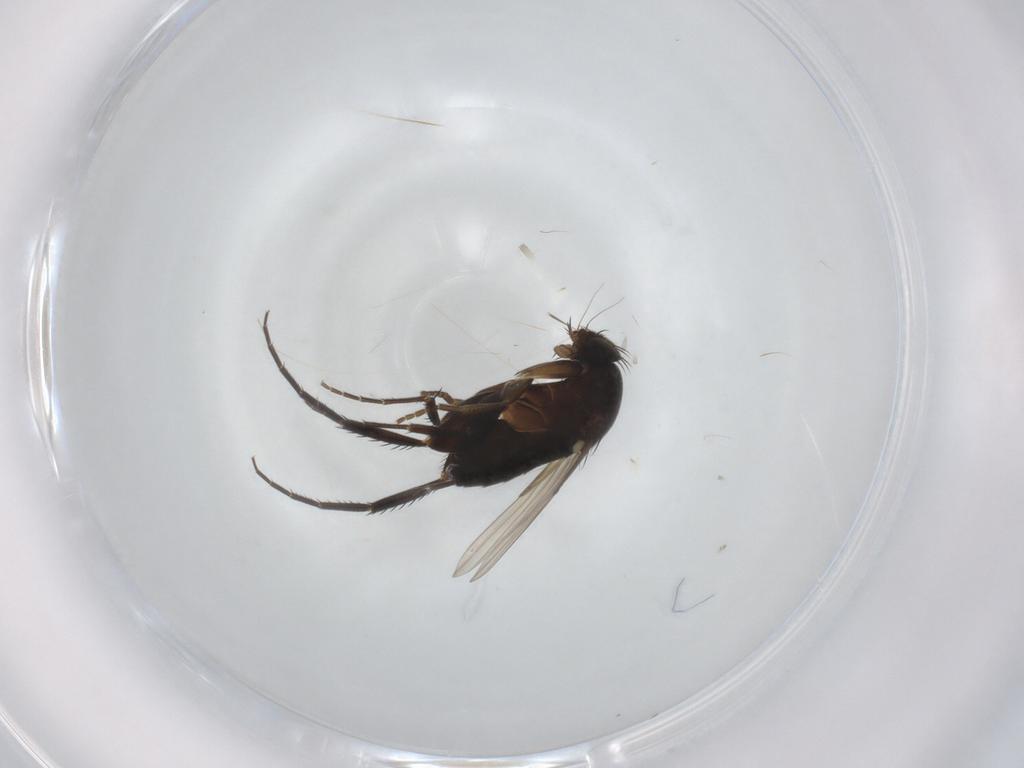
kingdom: Animalia
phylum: Arthropoda
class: Insecta
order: Diptera
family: Phoridae
